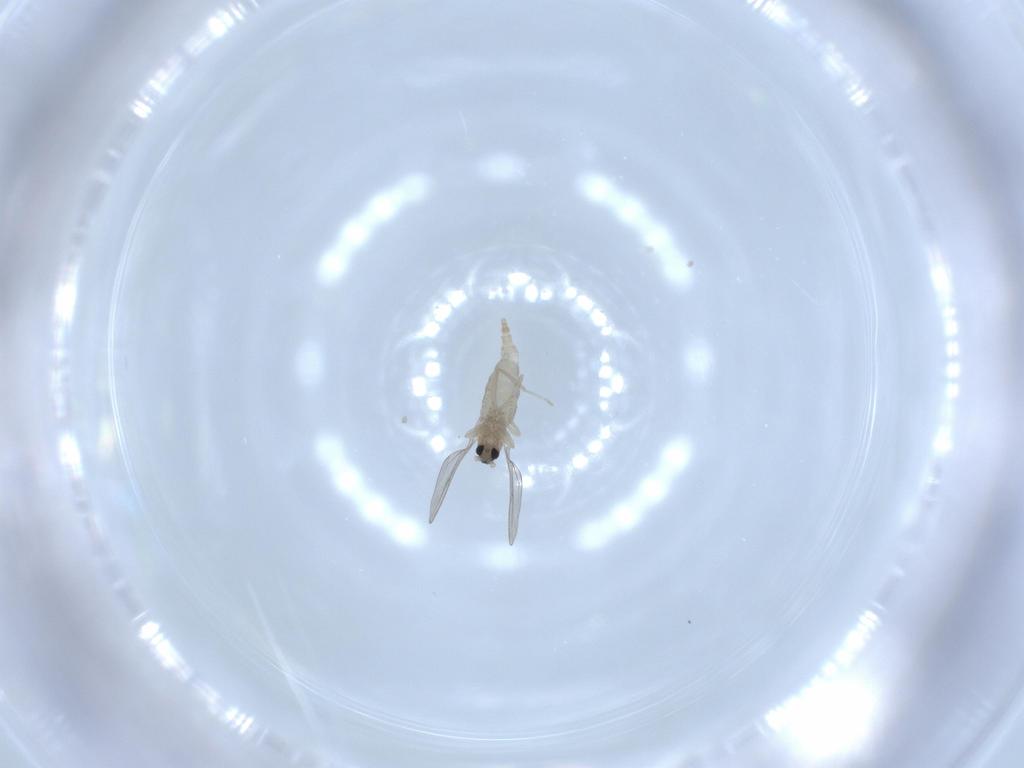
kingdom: Animalia
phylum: Arthropoda
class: Insecta
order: Diptera
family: Cecidomyiidae
